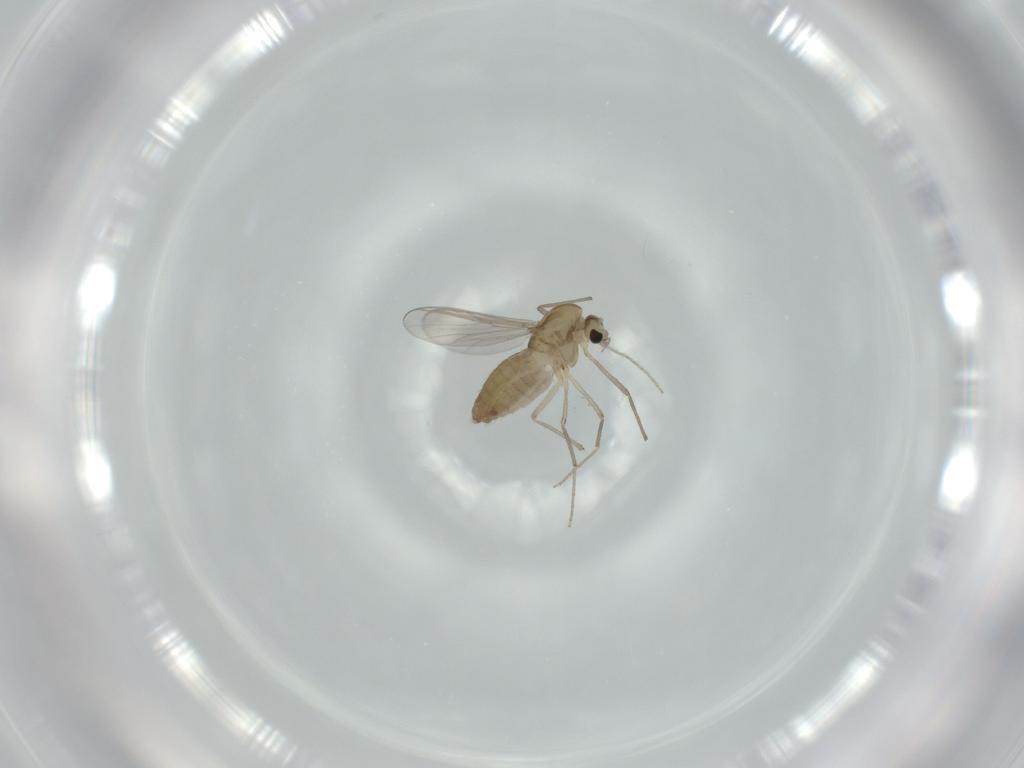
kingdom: Animalia
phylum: Arthropoda
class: Insecta
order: Diptera
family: Chironomidae
